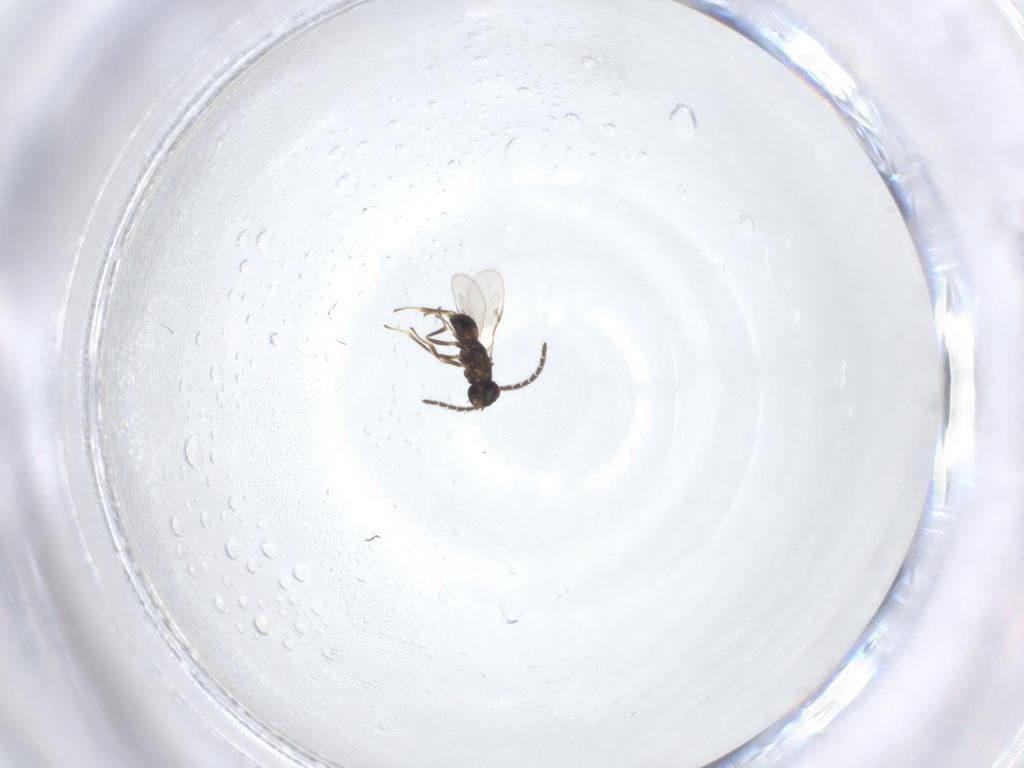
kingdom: Animalia
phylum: Arthropoda
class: Insecta
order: Hymenoptera
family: Encyrtidae
